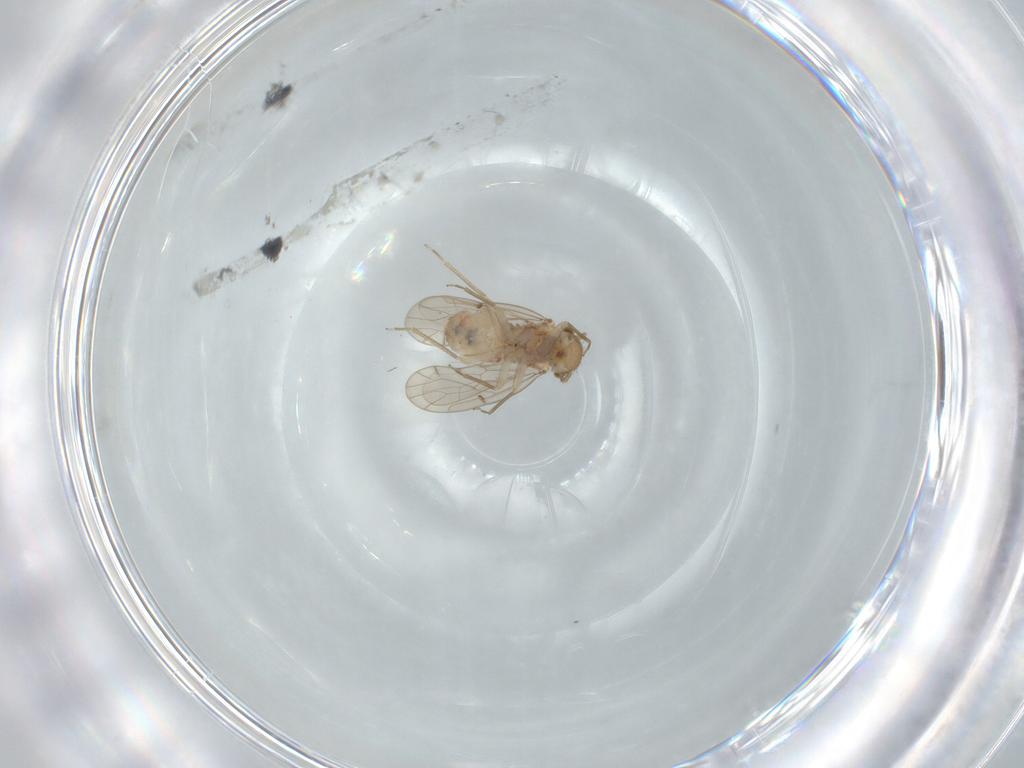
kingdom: Animalia
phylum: Arthropoda
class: Insecta
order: Psocodea
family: Ectopsocidae
